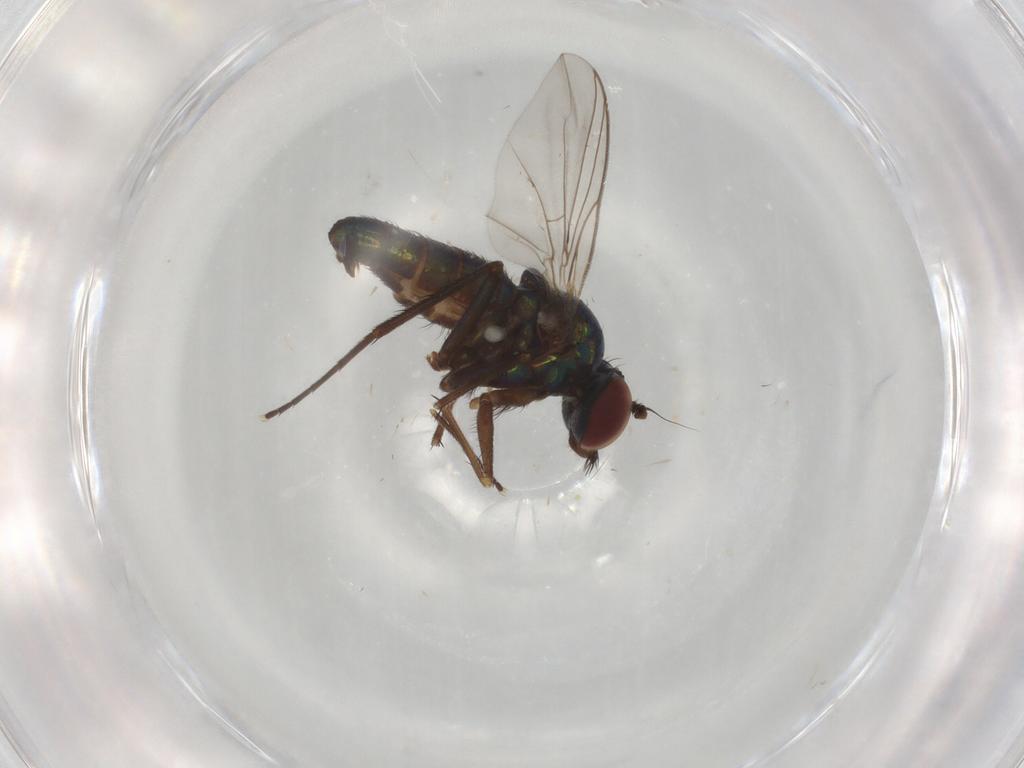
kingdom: Animalia
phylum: Arthropoda
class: Insecta
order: Diptera
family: Dolichopodidae
